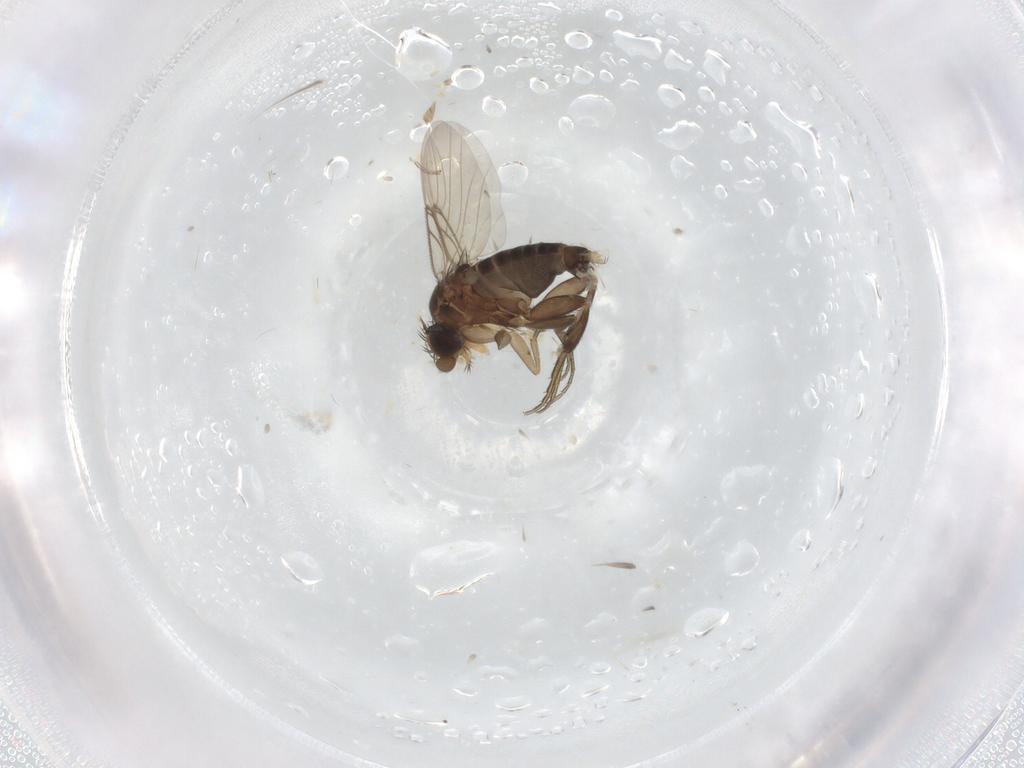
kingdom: Animalia
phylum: Arthropoda
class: Insecta
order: Diptera
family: Phoridae
